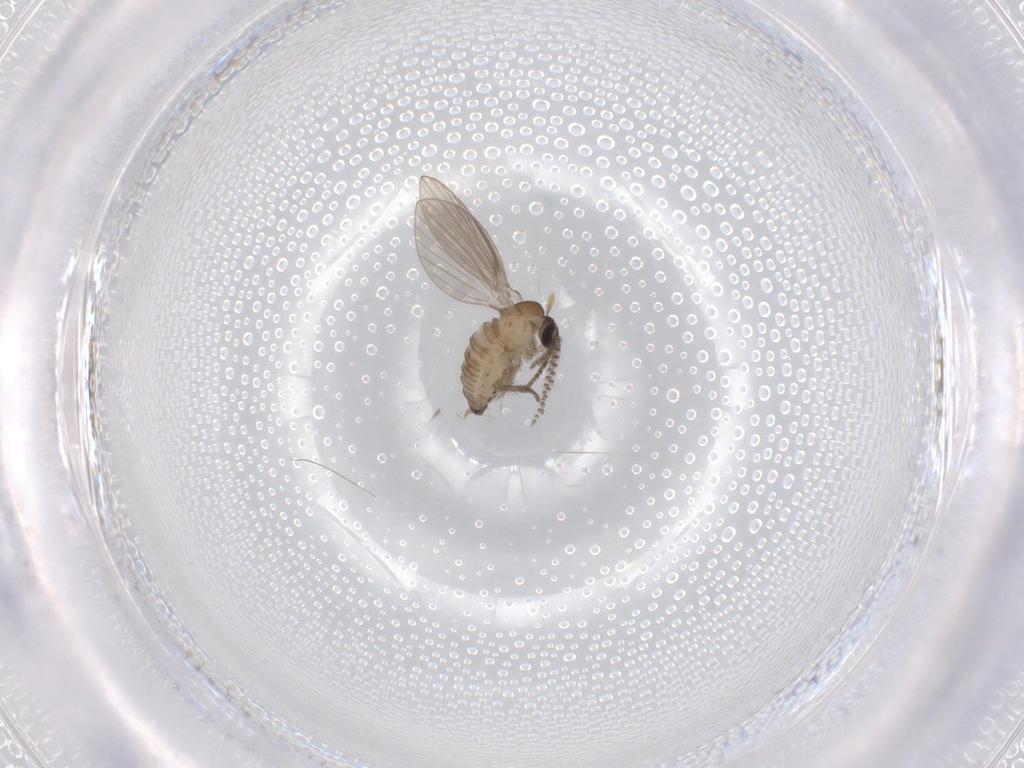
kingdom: Animalia
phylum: Arthropoda
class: Insecta
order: Diptera
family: Psychodidae
